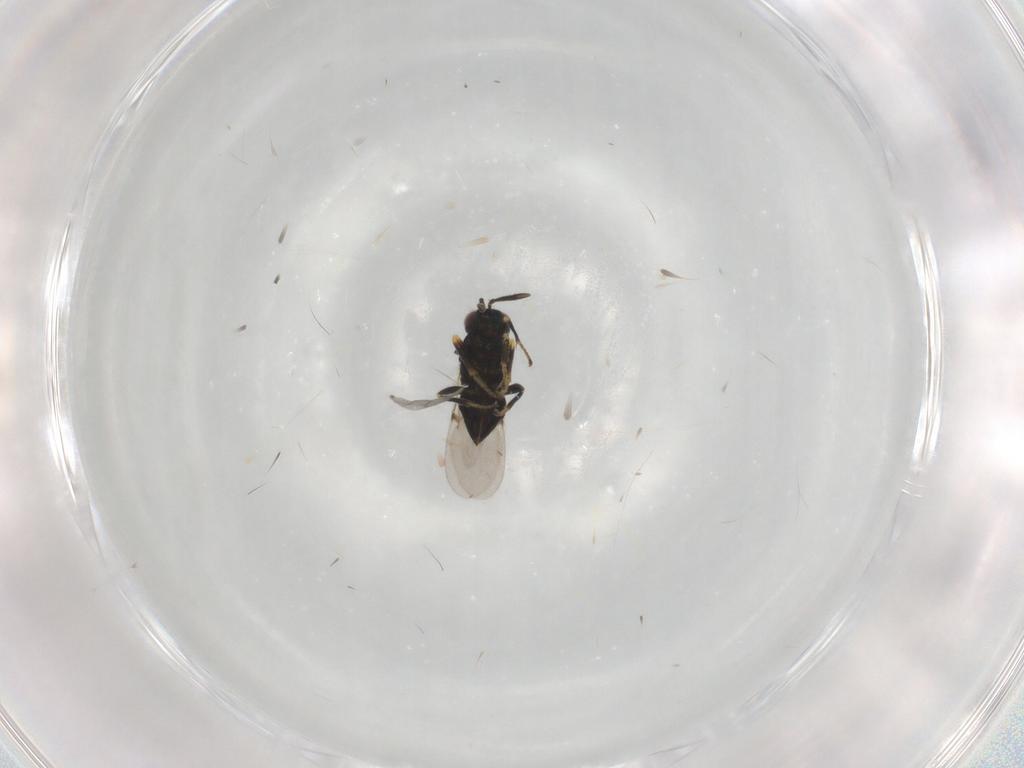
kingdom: Animalia
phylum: Arthropoda
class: Insecta
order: Hymenoptera
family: Encyrtidae
